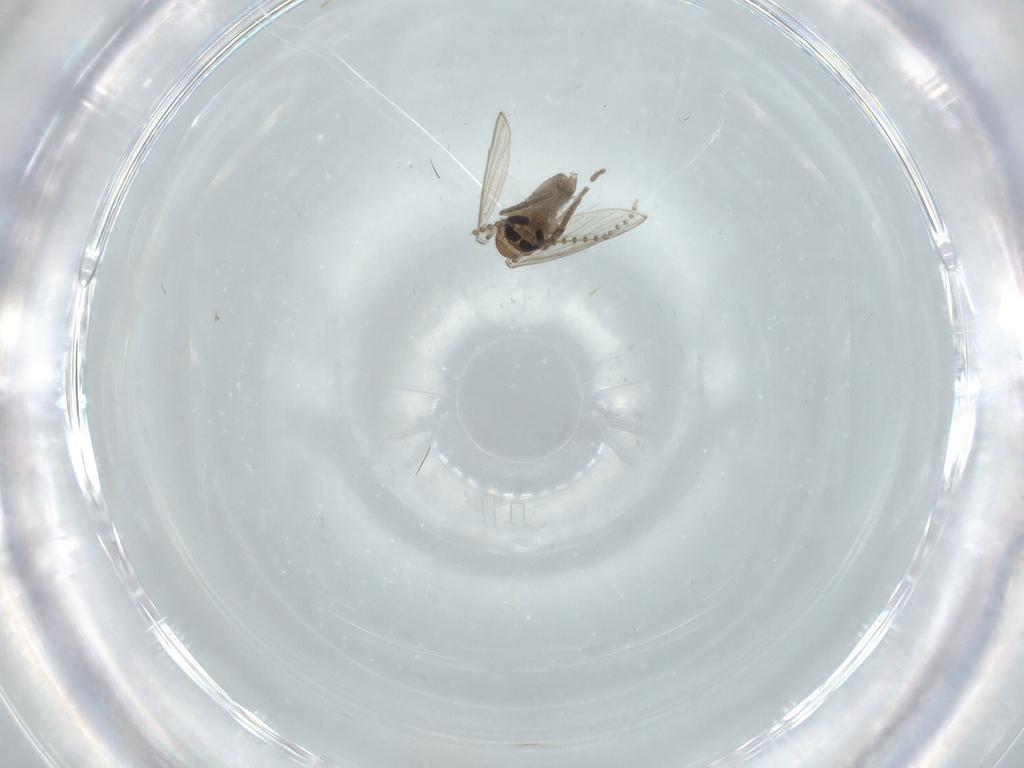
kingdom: Animalia
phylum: Arthropoda
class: Insecta
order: Diptera
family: Psychodidae
